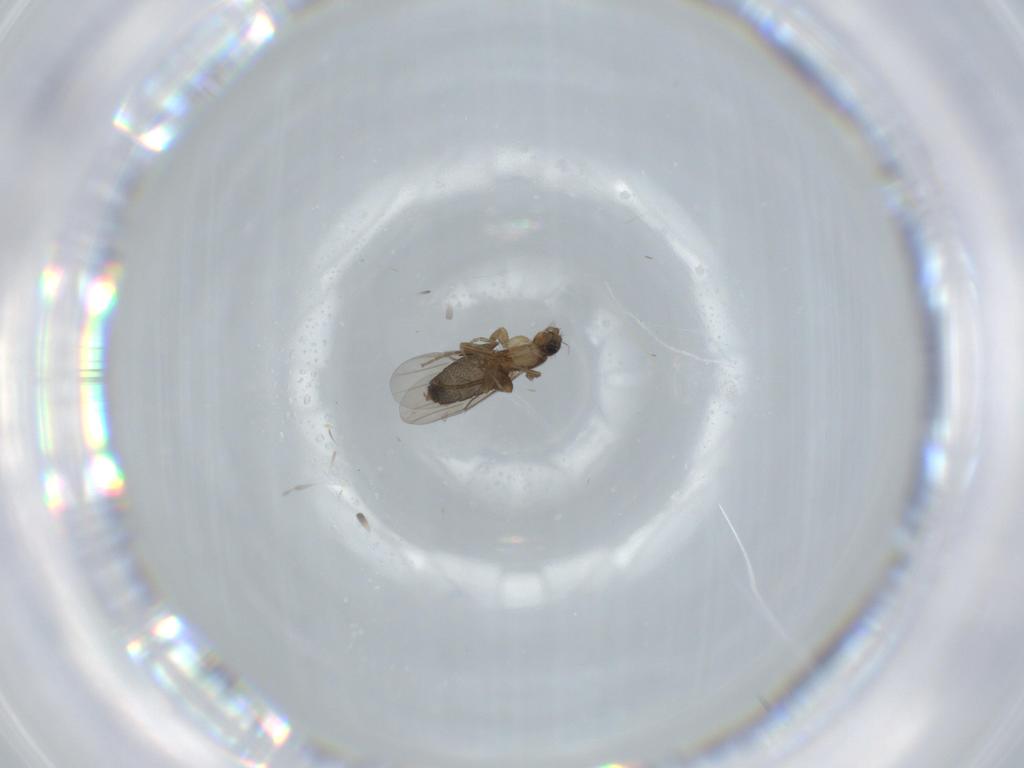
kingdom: Animalia
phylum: Arthropoda
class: Insecta
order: Diptera
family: Phoridae
